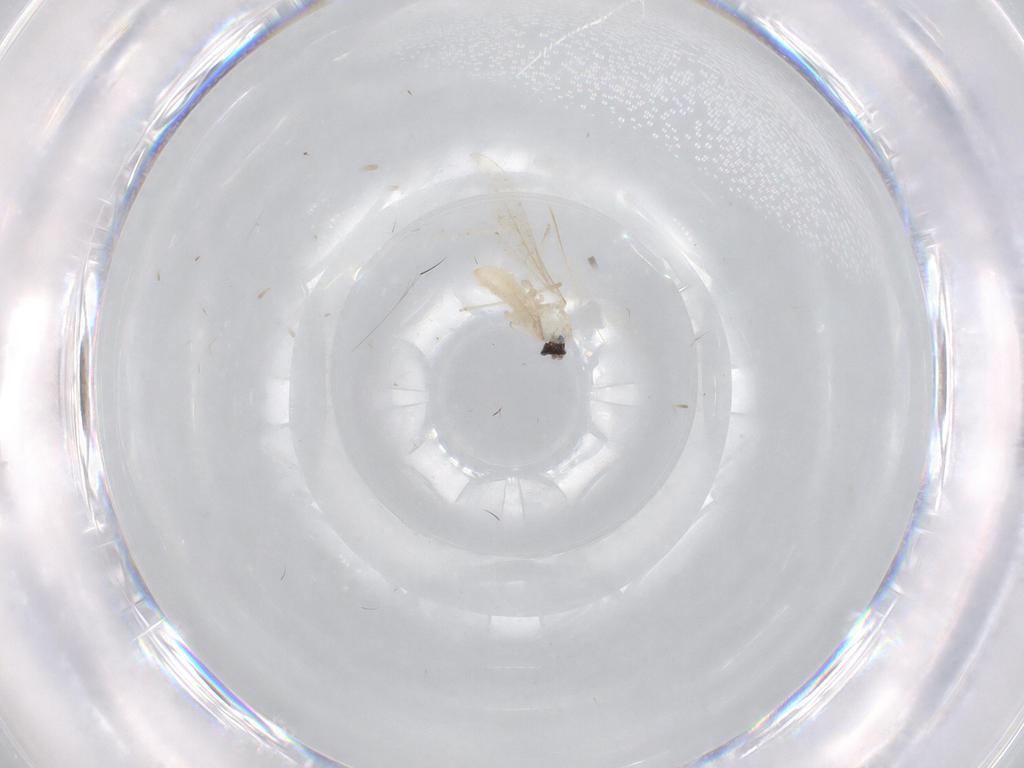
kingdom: Animalia
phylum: Arthropoda
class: Insecta
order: Diptera
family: Cecidomyiidae
